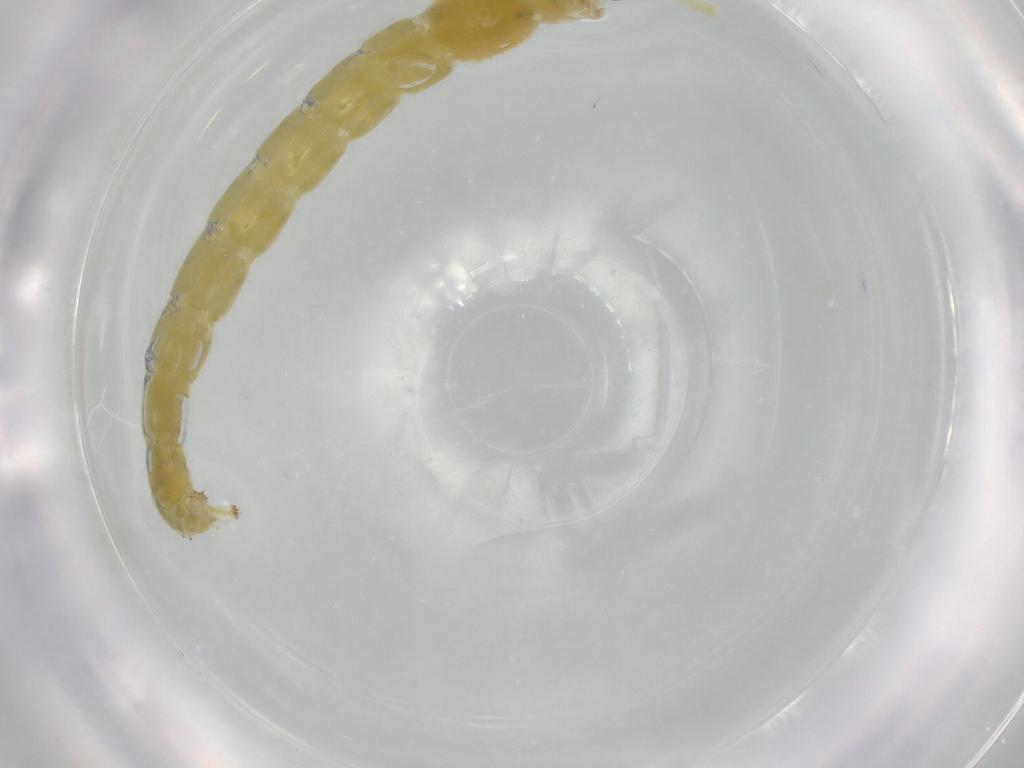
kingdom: Animalia
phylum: Arthropoda
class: Insecta
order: Diptera
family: Phoridae
